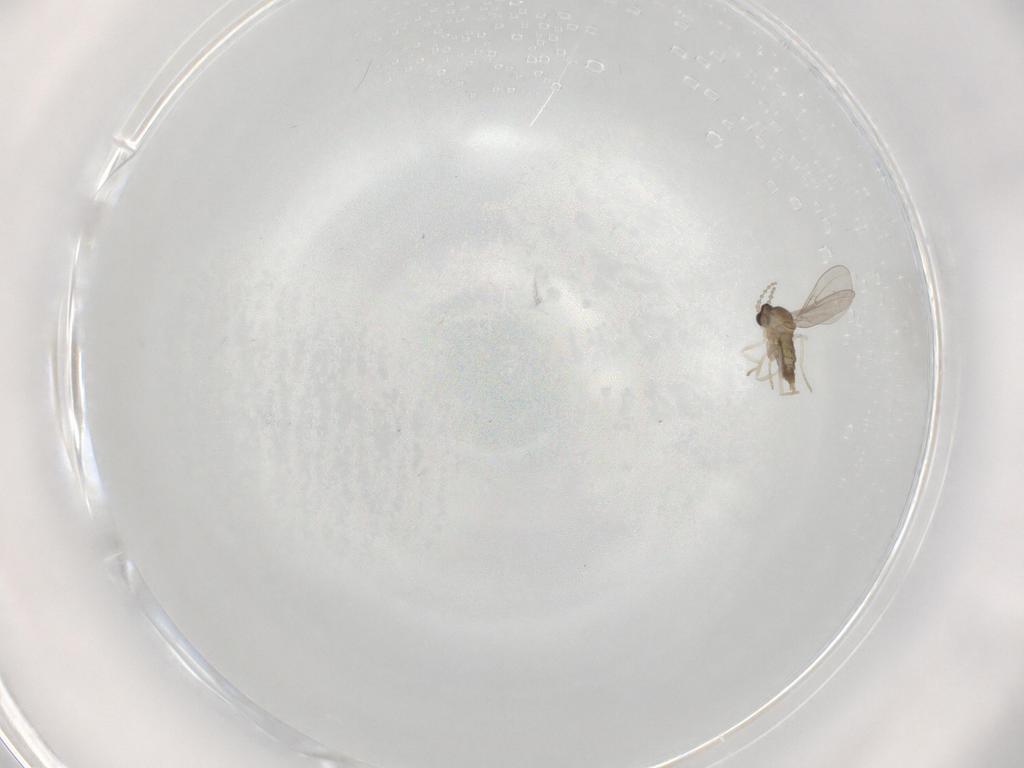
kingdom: Animalia
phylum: Arthropoda
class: Insecta
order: Diptera
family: Cecidomyiidae
